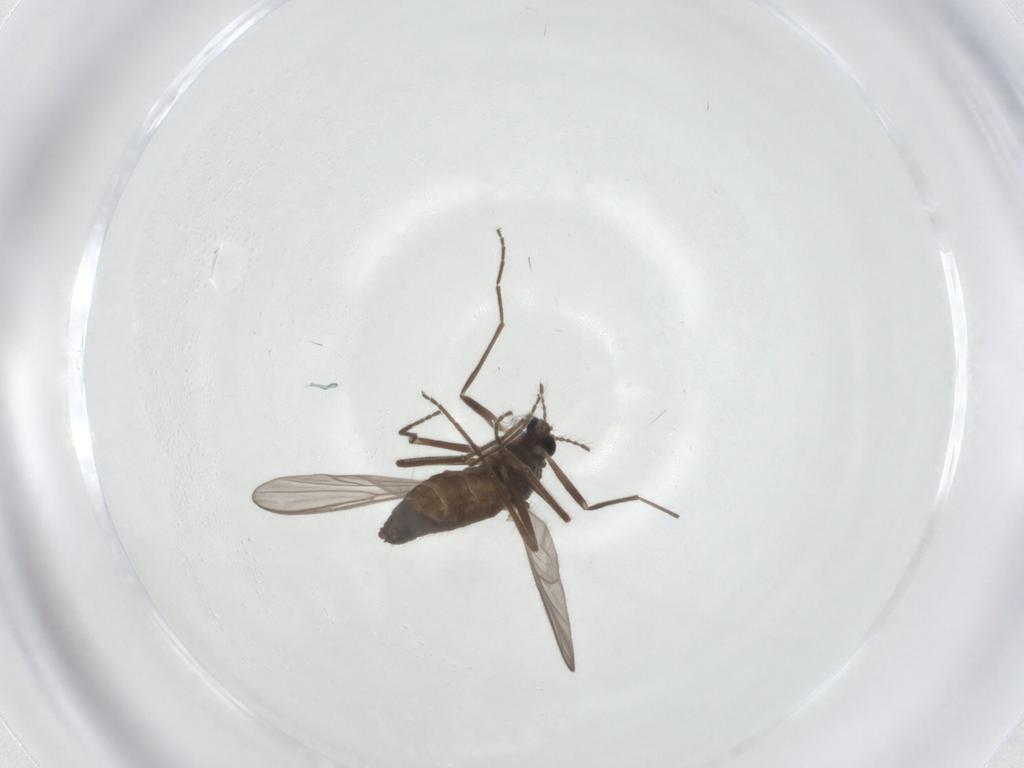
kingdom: Animalia
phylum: Arthropoda
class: Insecta
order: Diptera
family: Chironomidae
